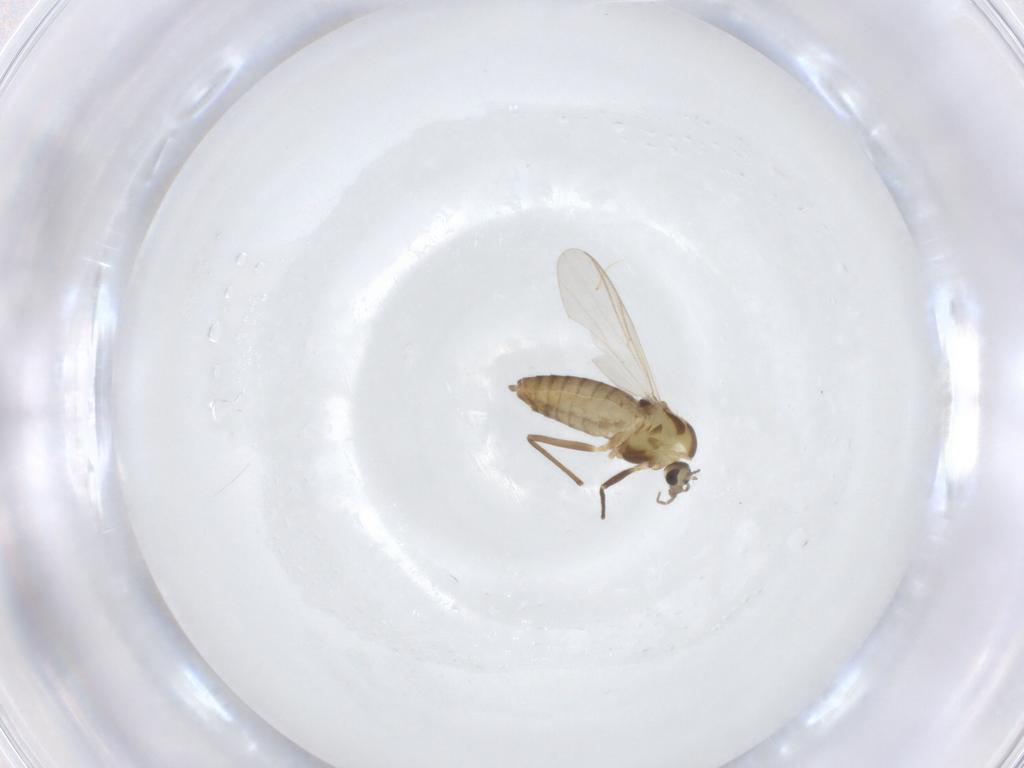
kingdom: Animalia
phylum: Arthropoda
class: Insecta
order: Diptera
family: Chironomidae
